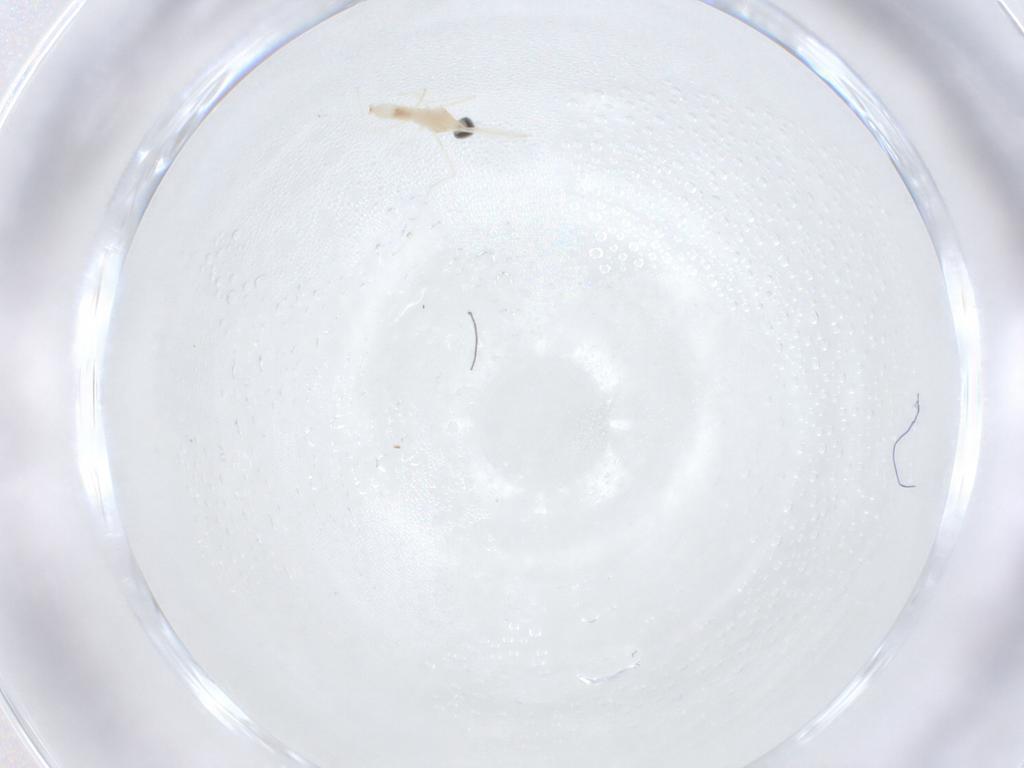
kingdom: Animalia
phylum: Arthropoda
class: Insecta
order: Diptera
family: Cecidomyiidae
